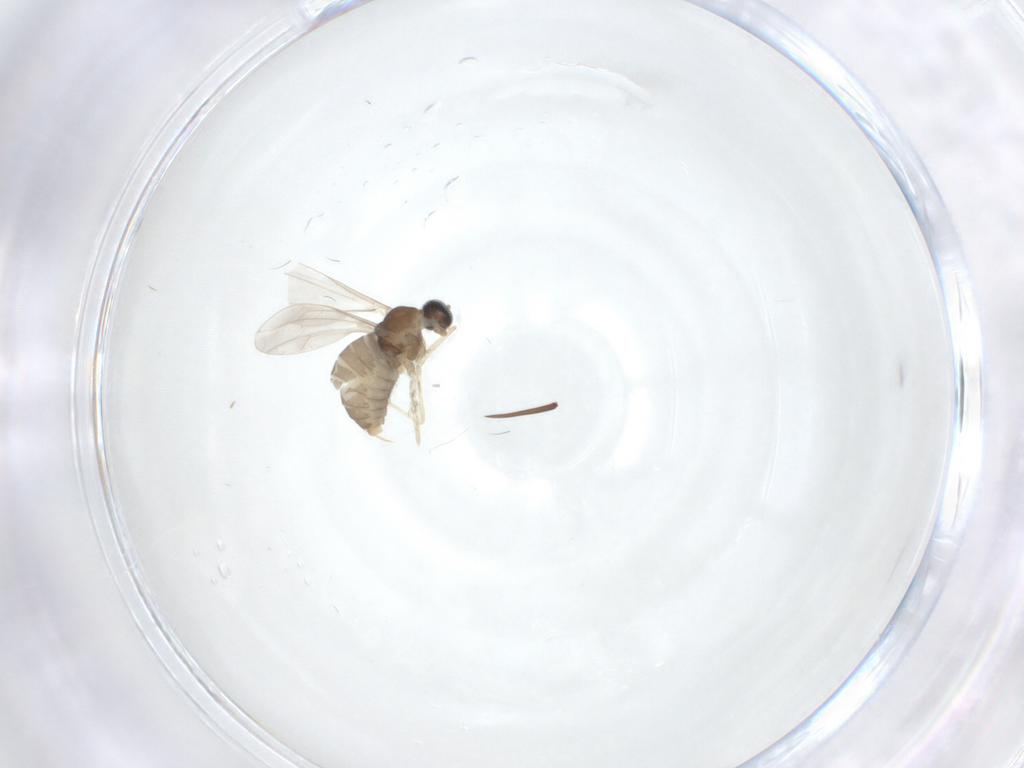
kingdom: Animalia
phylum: Arthropoda
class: Insecta
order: Diptera
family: Cecidomyiidae
